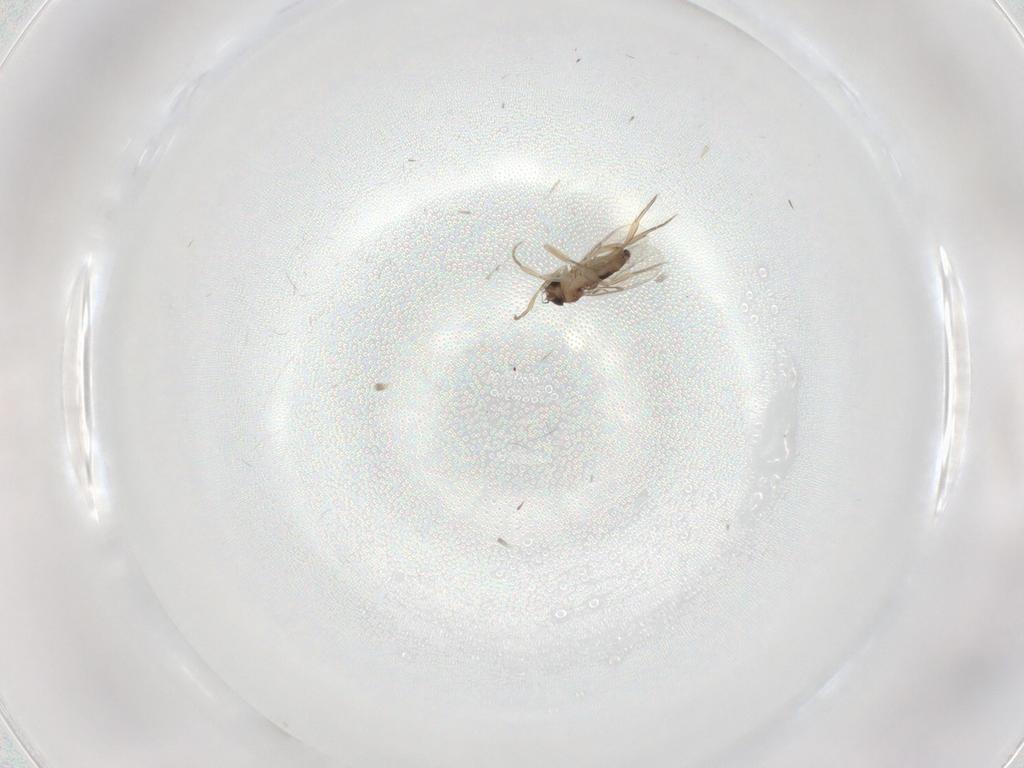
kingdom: Animalia
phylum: Arthropoda
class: Insecta
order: Diptera
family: Phoridae
